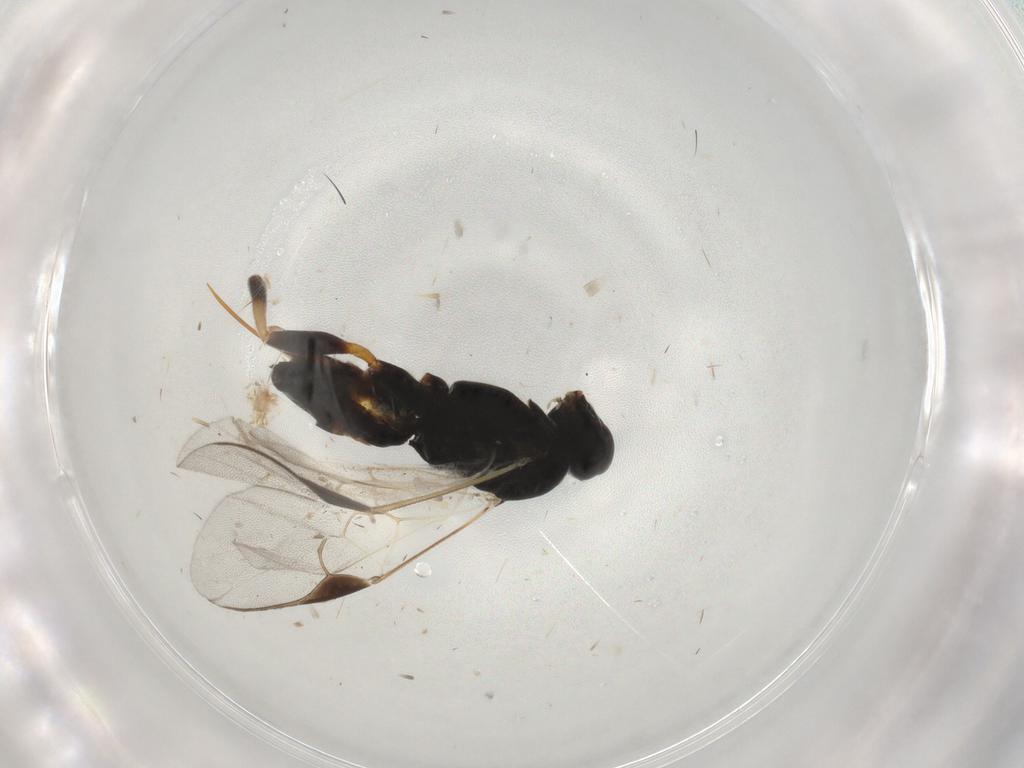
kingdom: Animalia
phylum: Arthropoda
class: Insecta
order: Hymenoptera
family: Braconidae
